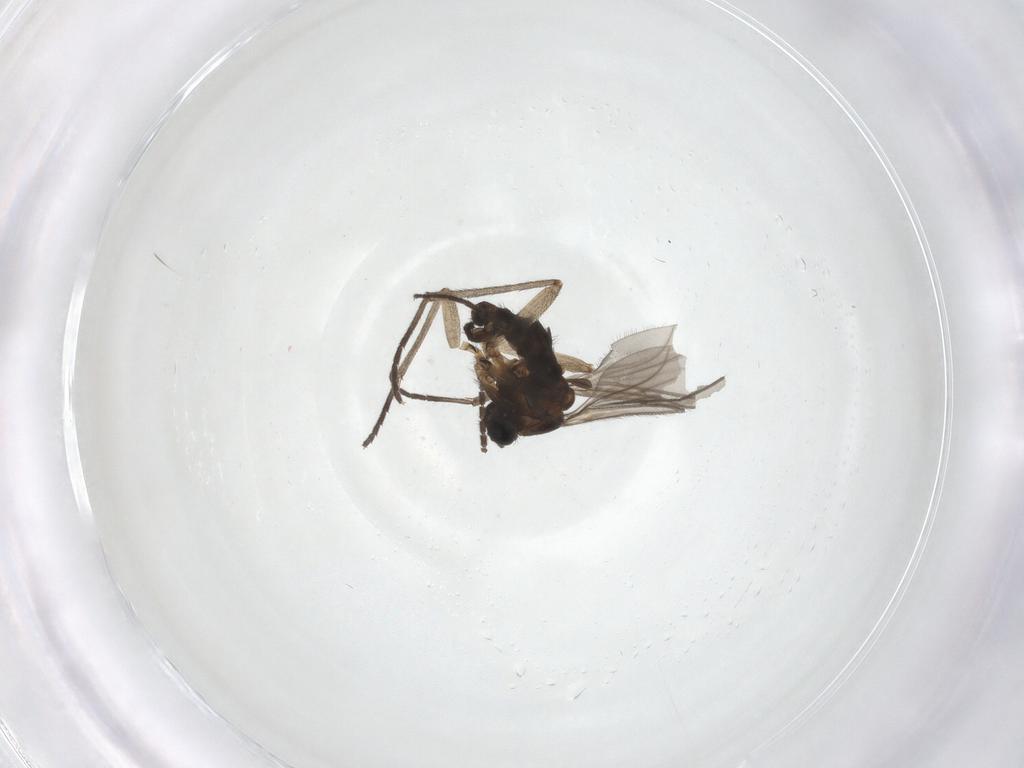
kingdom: Animalia
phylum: Arthropoda
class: Insecta
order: Diptera
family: Sciaridae
